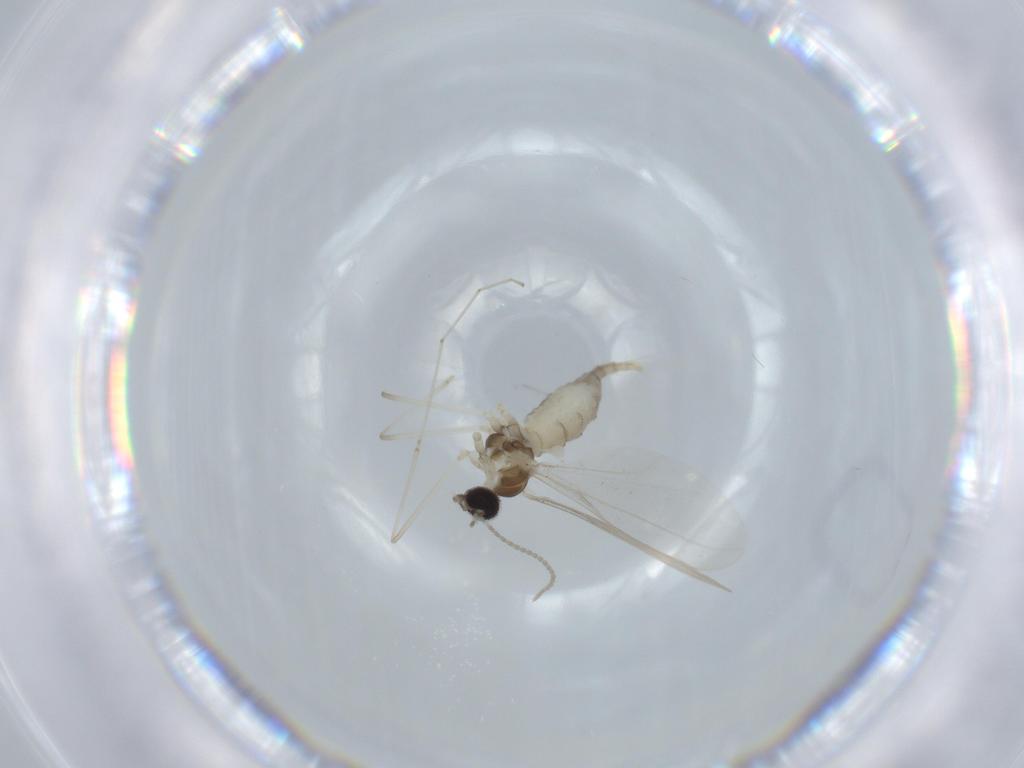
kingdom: Animalia
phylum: Arthropoda
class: Insecta
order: Diptera
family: Cecidomyiidae
